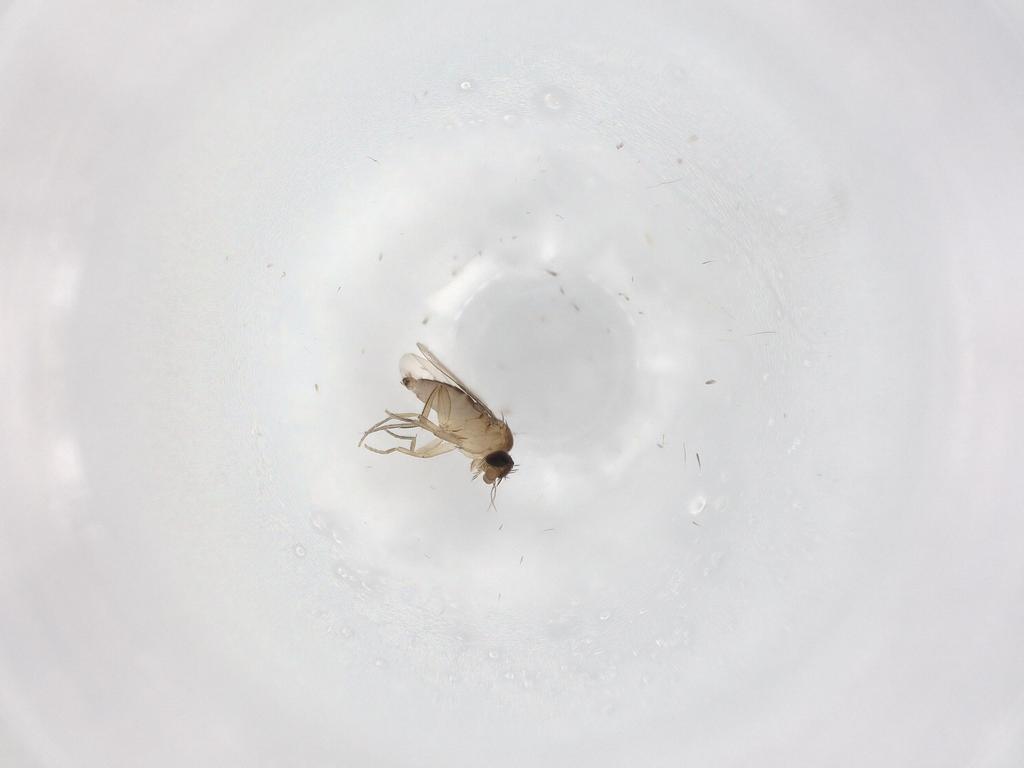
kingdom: Animalia
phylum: Arthropoda
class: Insecta
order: Diptera
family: Phoridae
